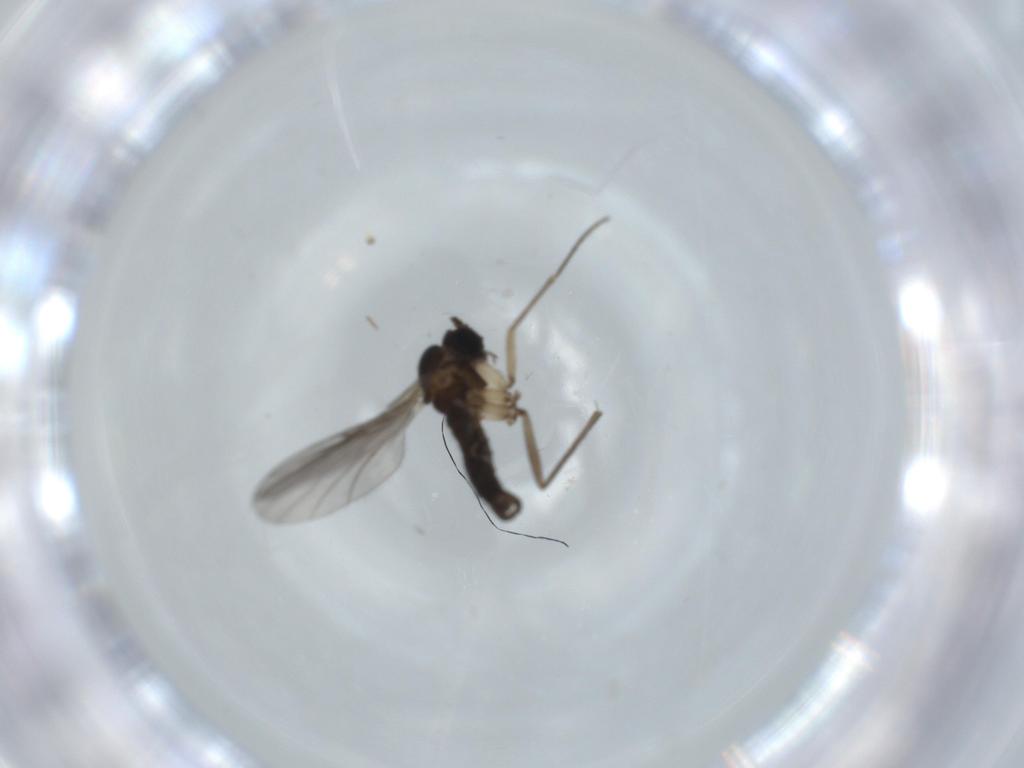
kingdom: Animalia
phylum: Arthropoda
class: Insecta
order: Diptera
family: Sciaridae
